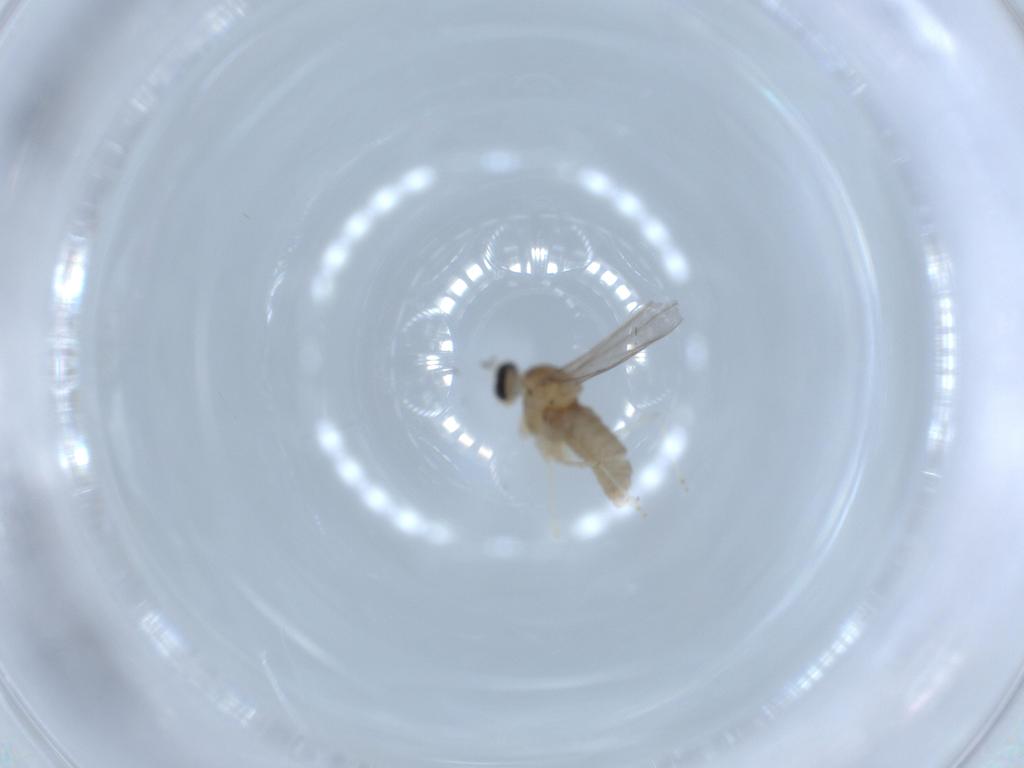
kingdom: Animalia
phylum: Arthropoda
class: Insecta
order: Diptera
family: Cecidomyiidae
